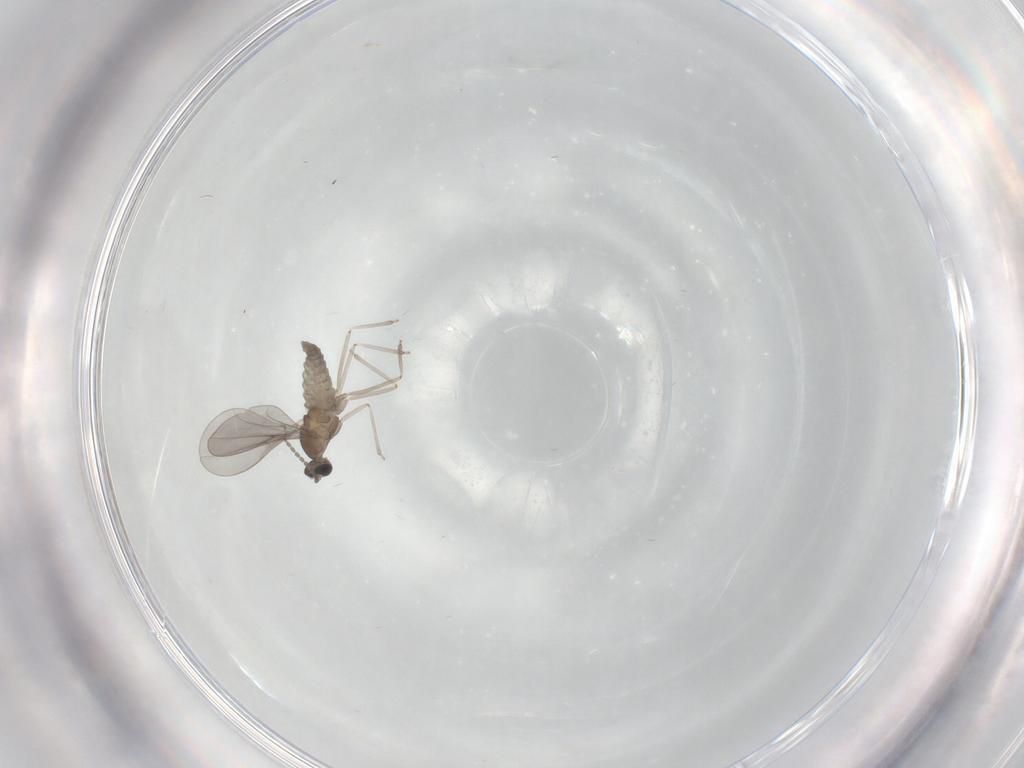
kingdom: Animalia
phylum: Arthropoda
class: Insecta
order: Diptera
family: Cecidomyiidae
